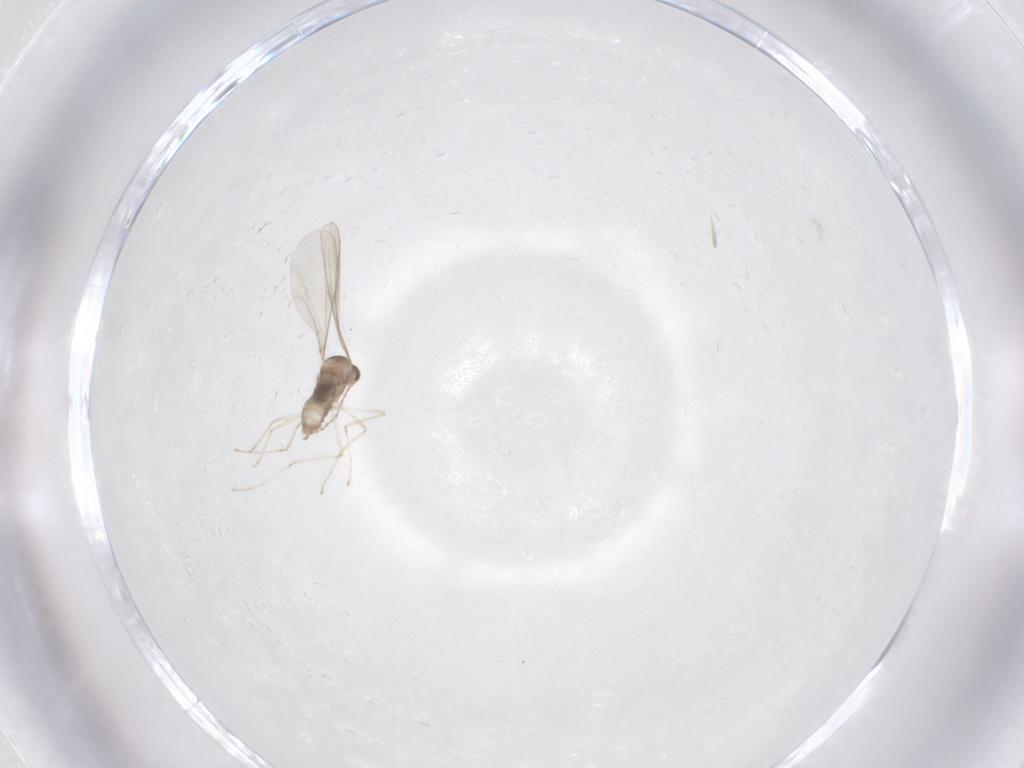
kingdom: Animalia
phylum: Arthropoda
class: Insecta
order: Diptera
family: Cecidomyiidae
